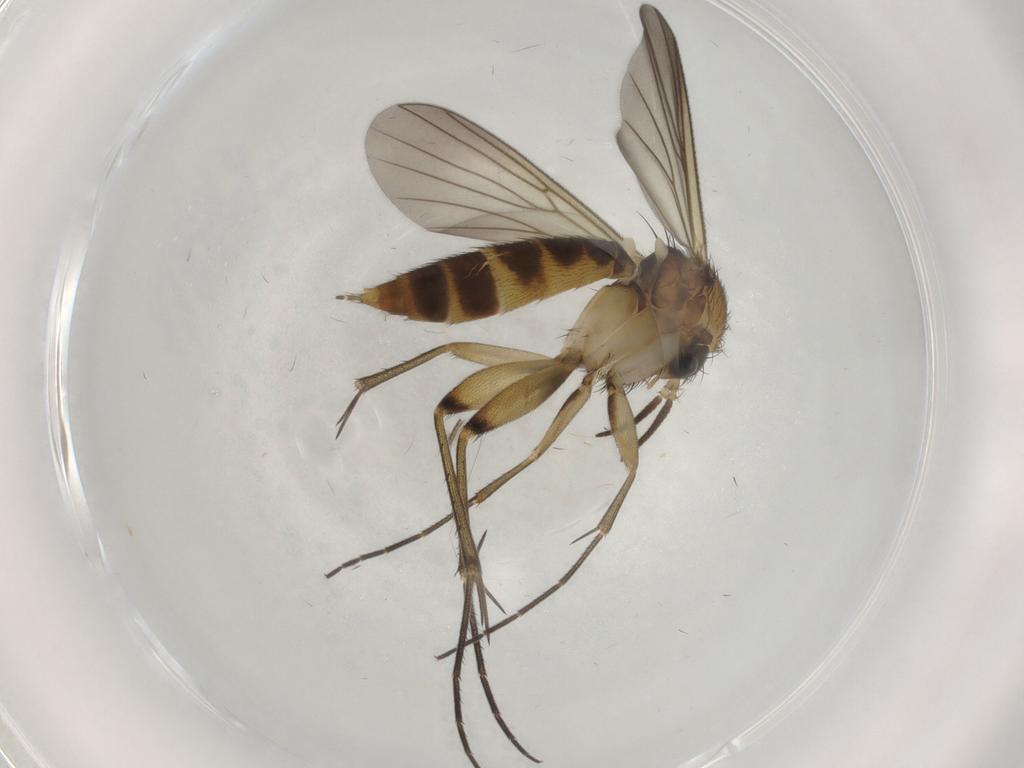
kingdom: Animalia
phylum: Arthropoda
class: Insecta
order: Diptera
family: Mycetophilidae
